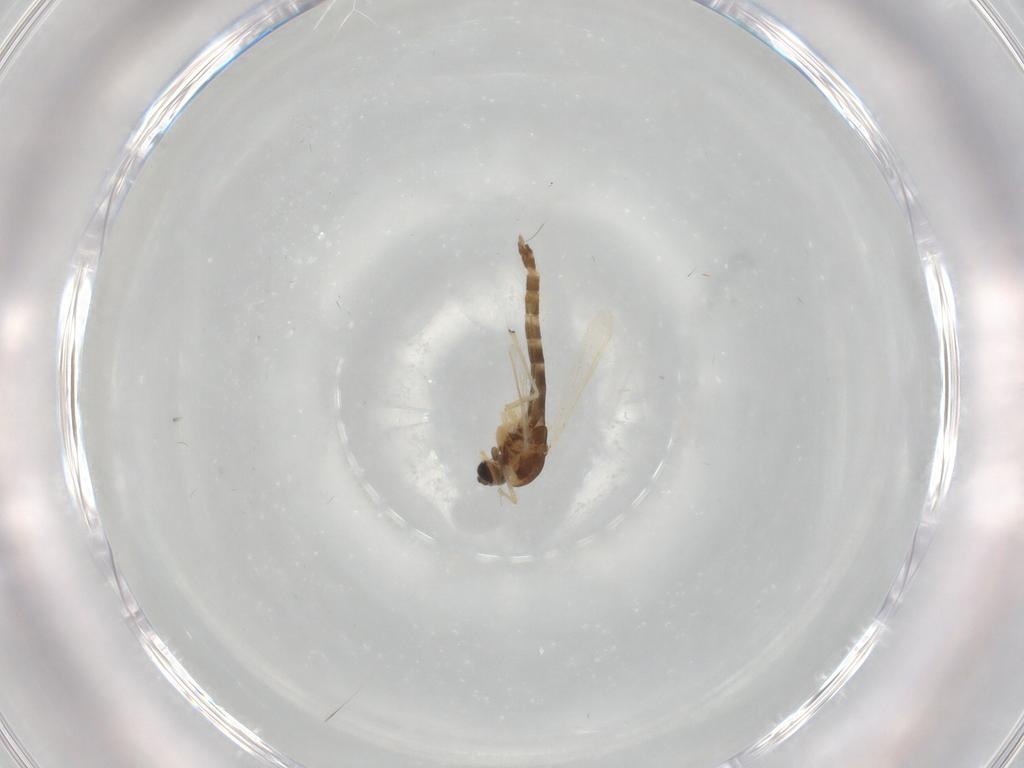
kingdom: Animalia
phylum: Arthropoda
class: Insecta
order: Diptera
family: Chironomidae
